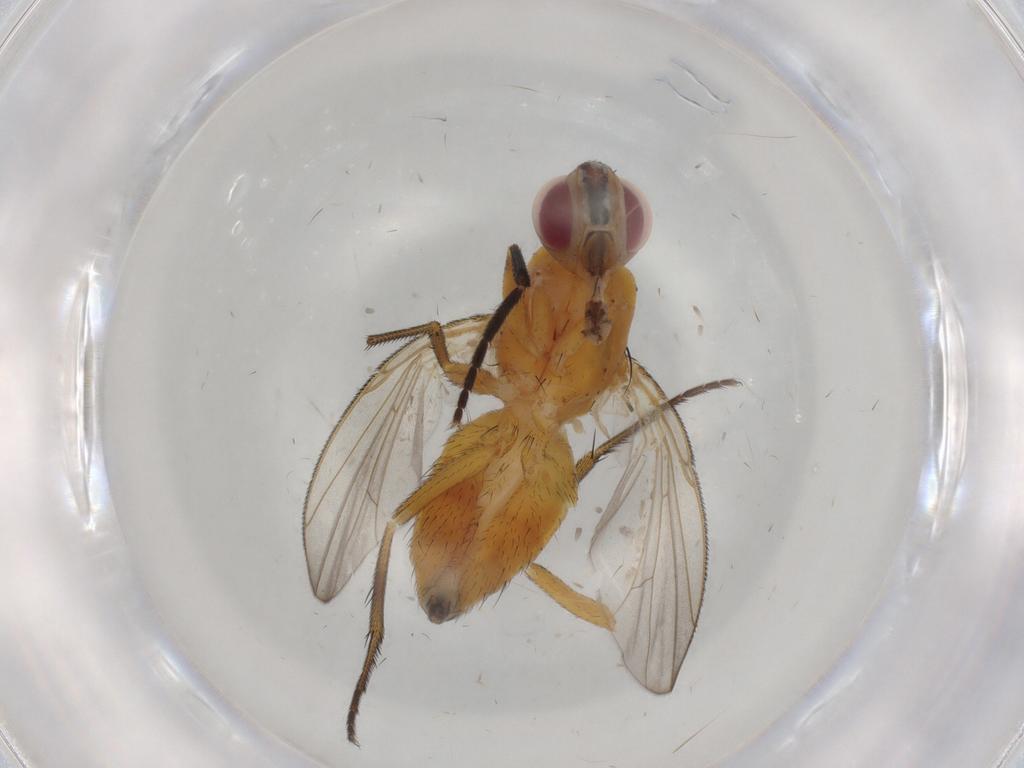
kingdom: Animalia
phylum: Arthropoda
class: Insecta
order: Diptera
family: Muscidae
